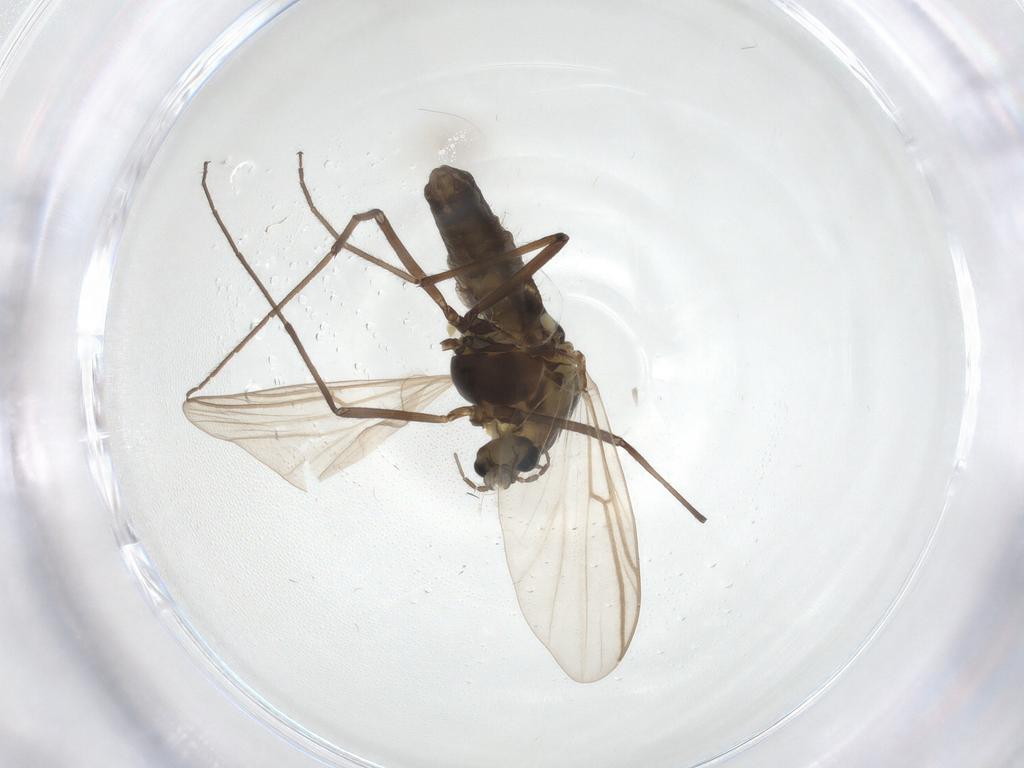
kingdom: Animalia
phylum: Arthropoda
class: Insecta
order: Diptera
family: Chironomidae
